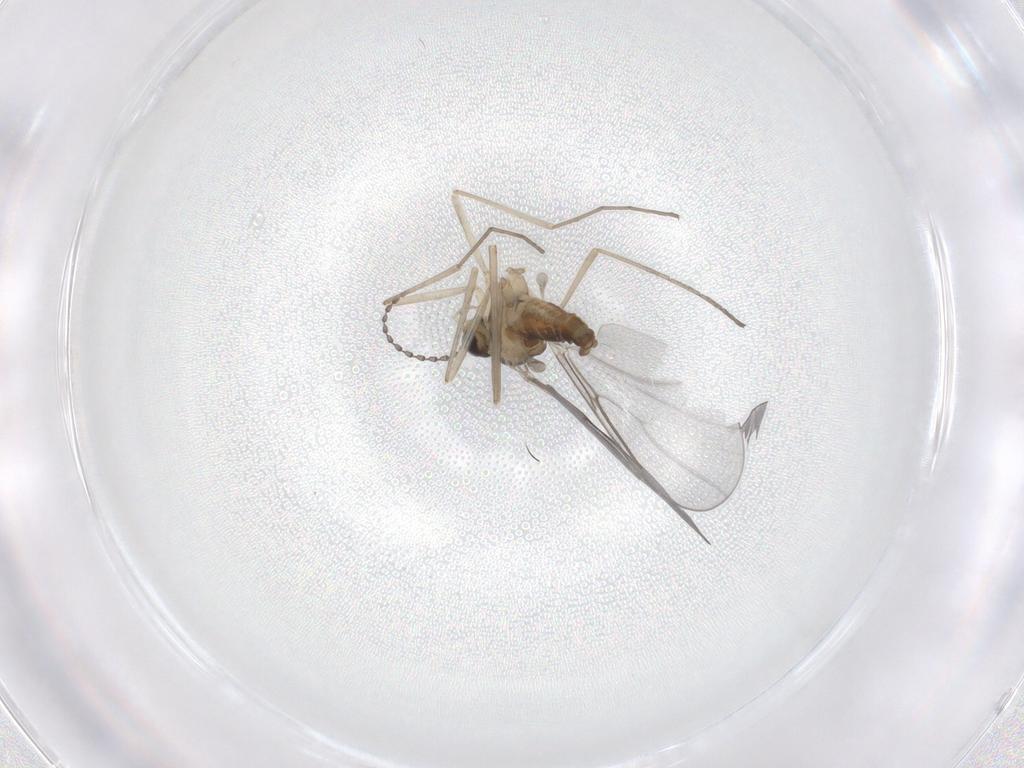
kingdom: Animalia
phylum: Arthropoda
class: Insecta
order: Diptera
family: Cecidomyiidae
